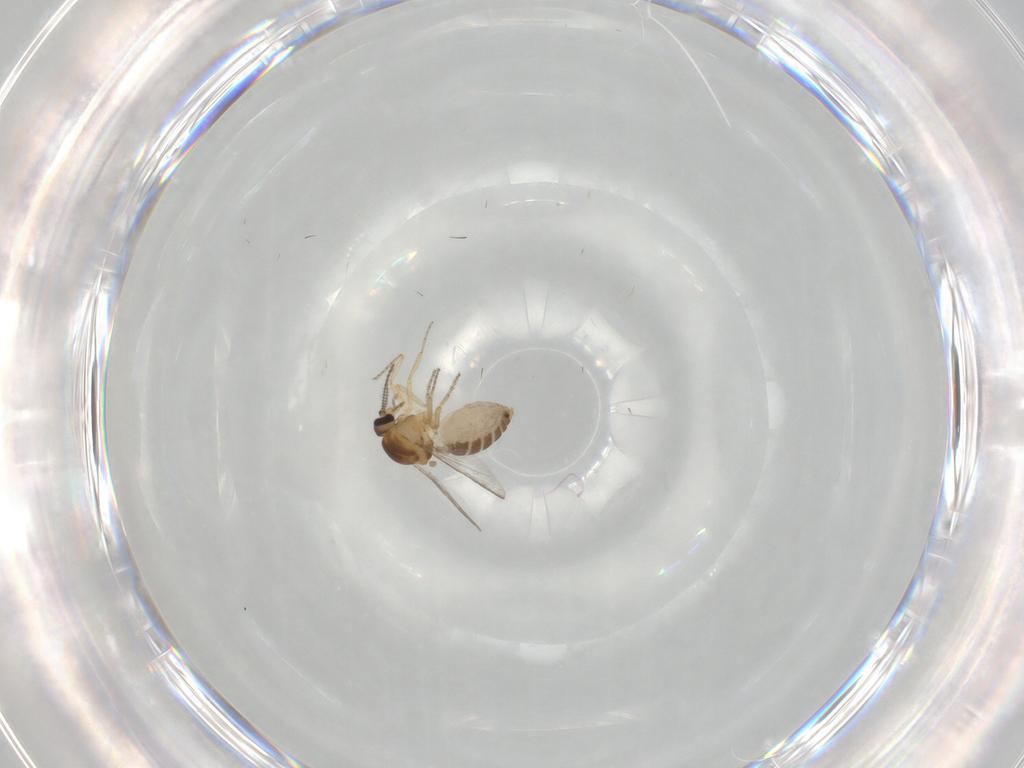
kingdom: Animalia
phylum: Arthropoda
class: Insecta
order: Diptera
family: Ceratopogonidae
